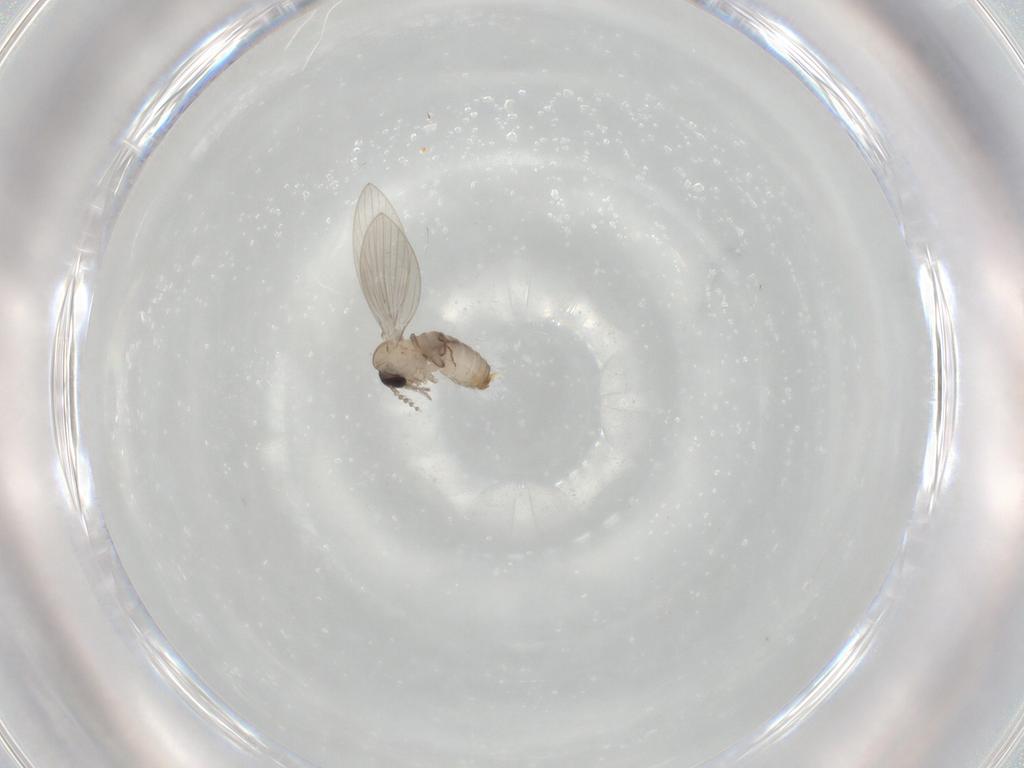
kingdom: Animalia
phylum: Arthropoda
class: Insecta
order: Diptera
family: Psychodidae
